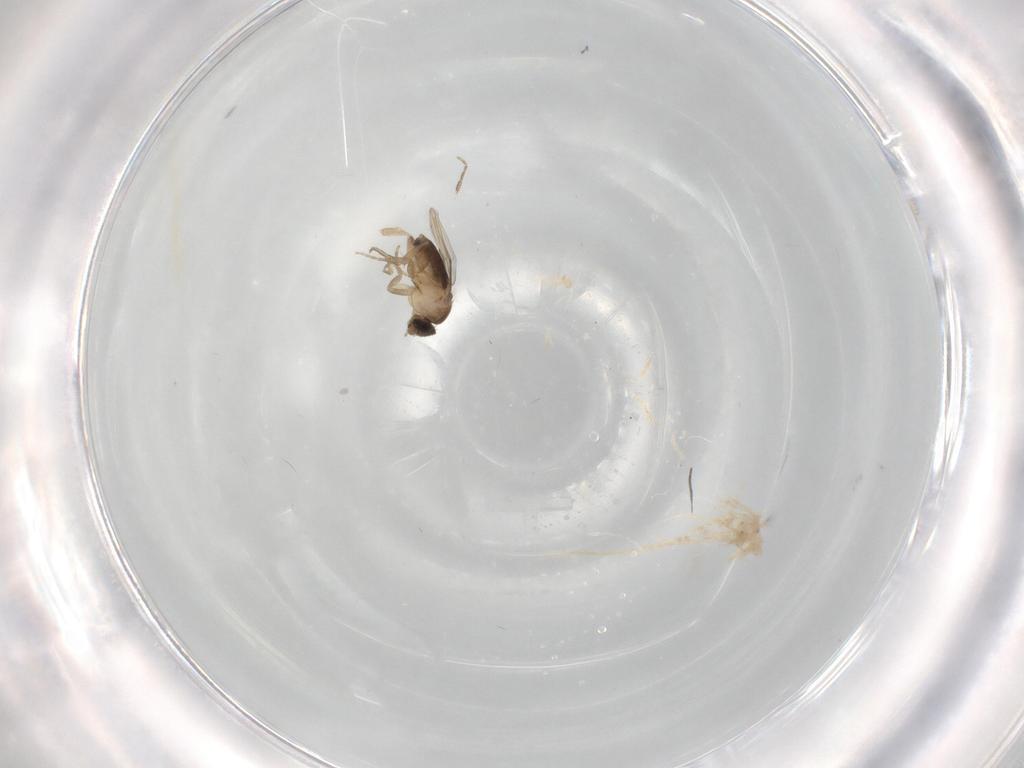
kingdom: Animalia
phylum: Arthropoda
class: Insecta
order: Diptera
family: Phoridae
